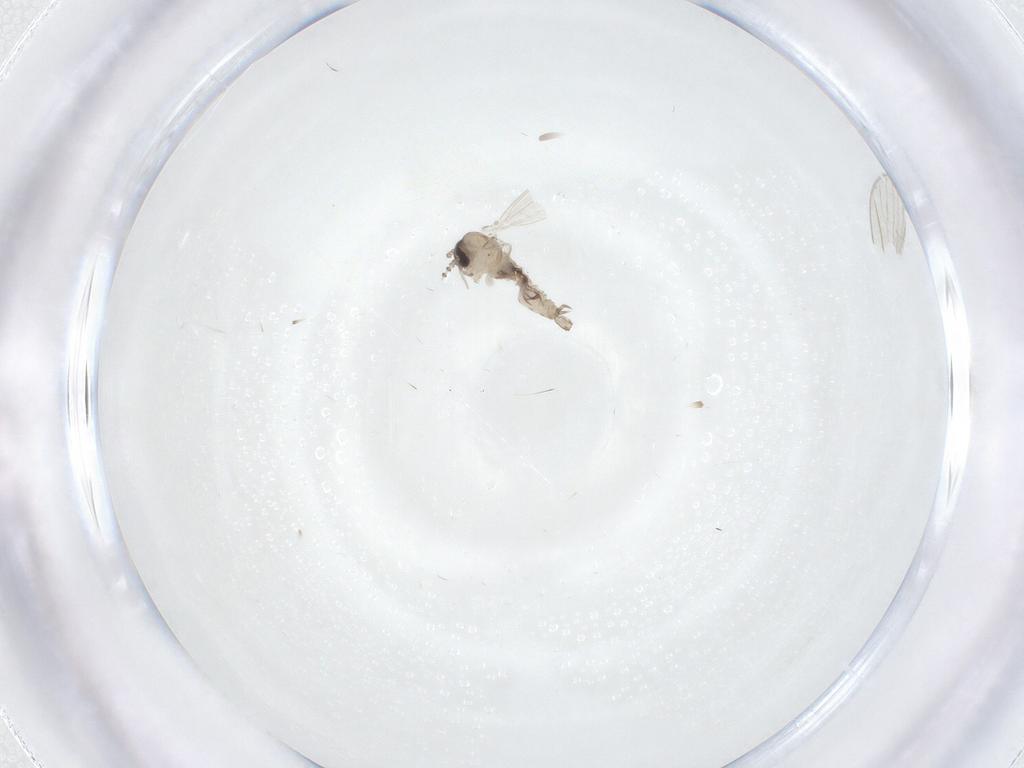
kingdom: Animalia
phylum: Arthropoda
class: Insecta
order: Diptera
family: Psychodidae
